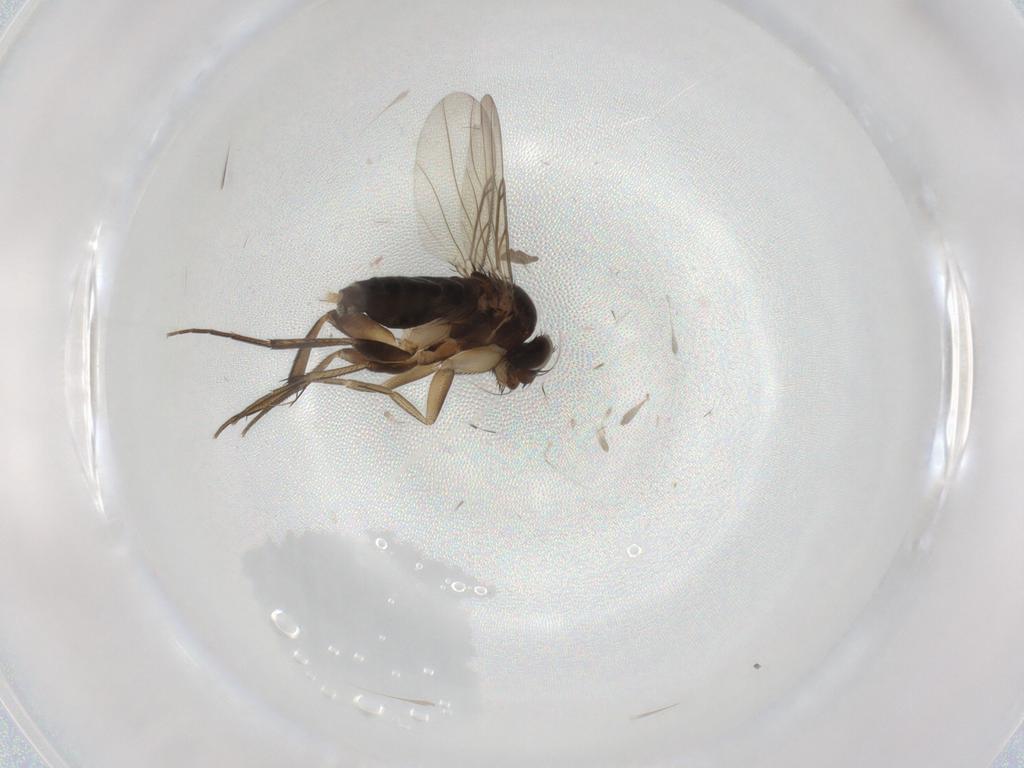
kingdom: Animalia
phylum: Arthropoda
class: Insecta
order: Diptera
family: Phoridae
